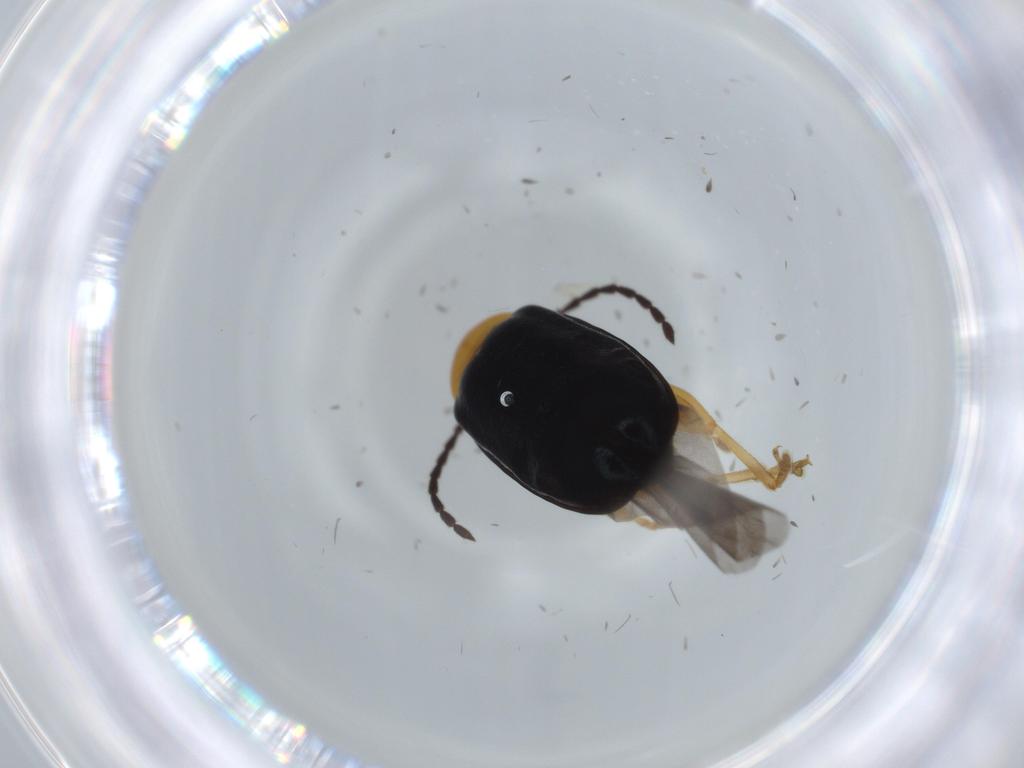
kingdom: Animalia
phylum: Arthropoda
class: Insecta
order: Coleoptera
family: Chrysomelidae
